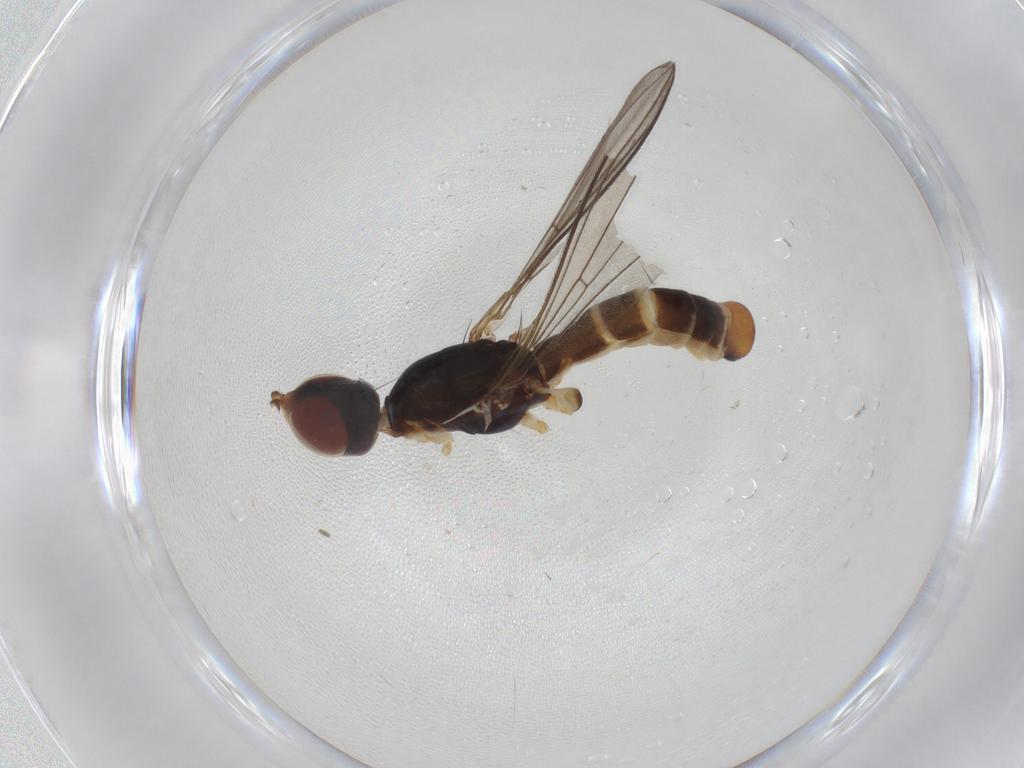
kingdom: Animalia
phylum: Arthropoda
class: Insecta
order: Diptera
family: Micropezidae
